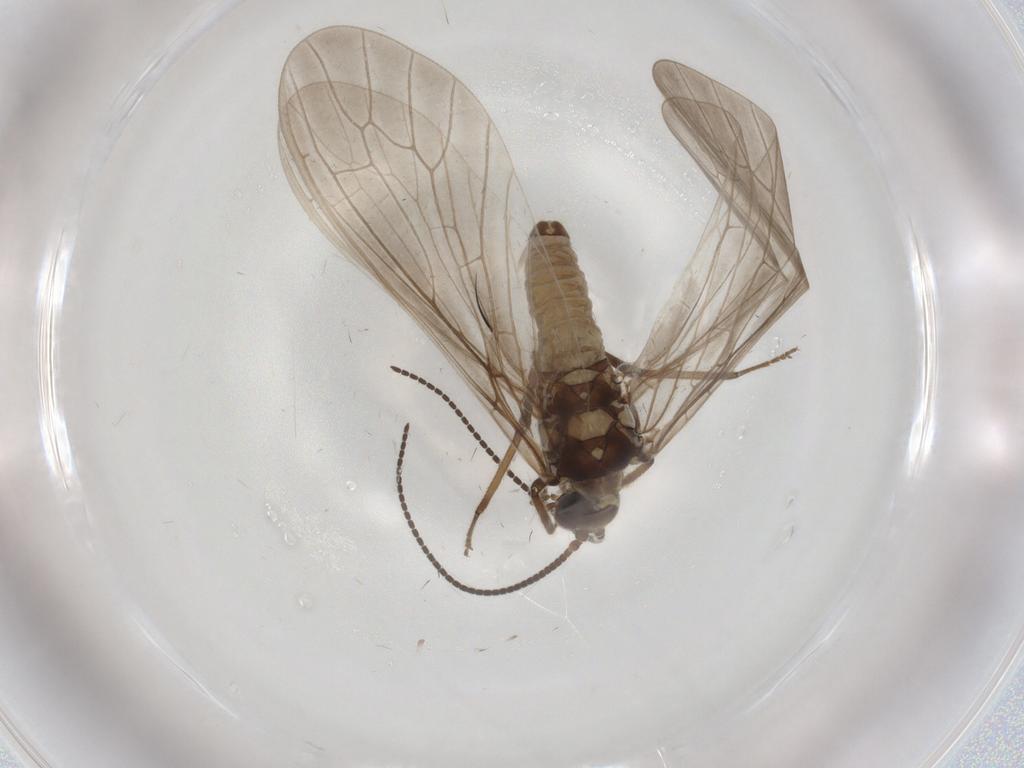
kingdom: Animalia
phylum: Arthropoda
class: Insecta
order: Neuroptera
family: Coniopterygidae
